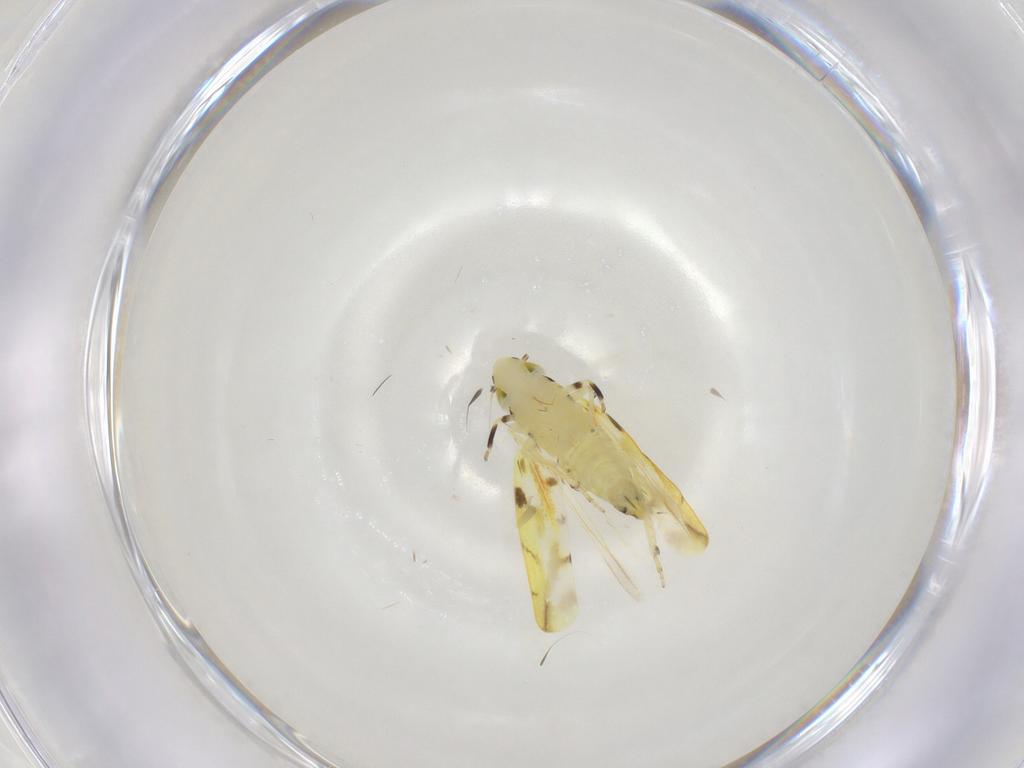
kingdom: Animalia
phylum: Arthropoda
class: Insecta
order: Hemiptera
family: Cicadellidae
